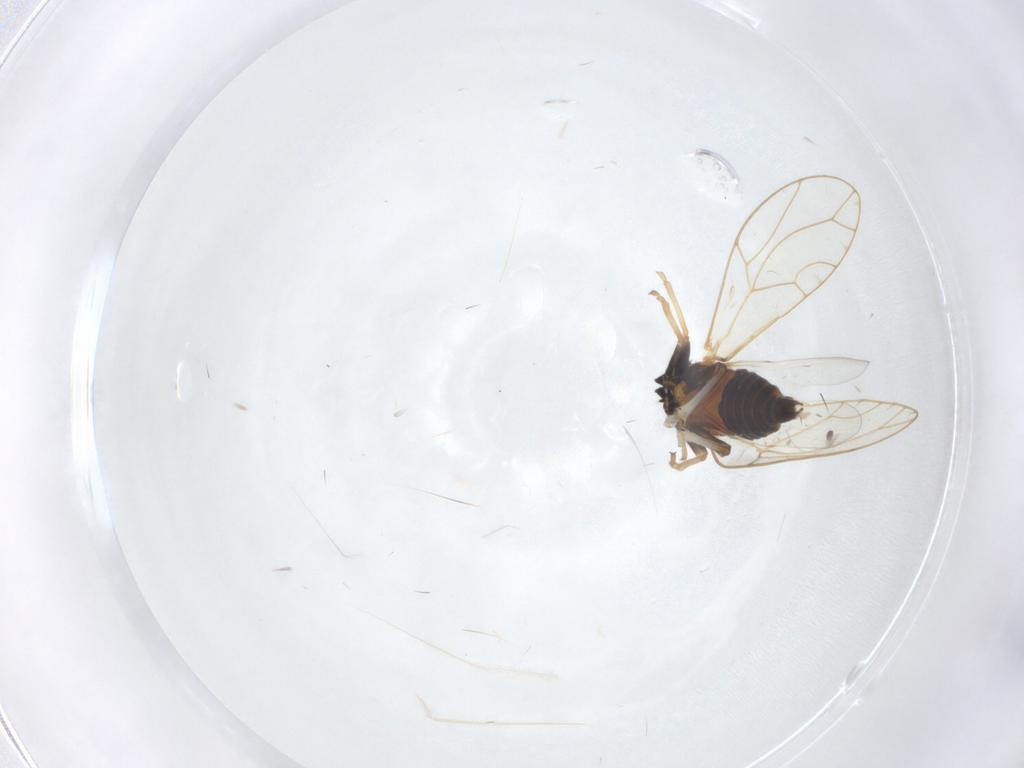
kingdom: Animalia
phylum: Arthropoda
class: Insecta
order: Hemiptera
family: Triozidae
